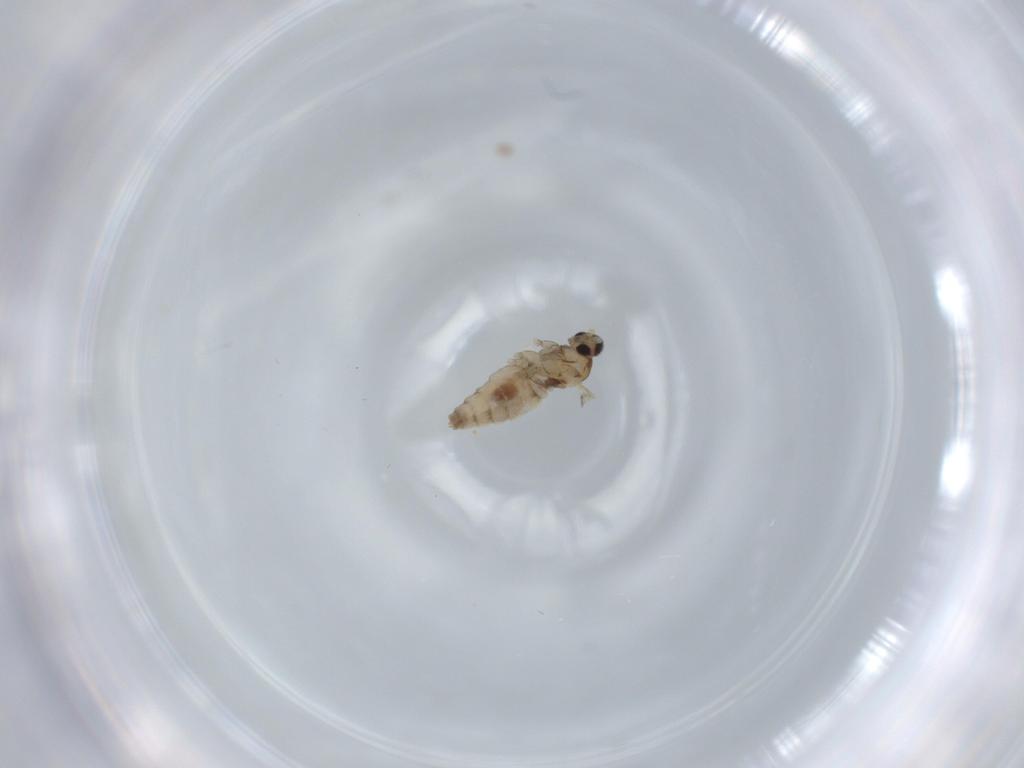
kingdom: Animalia
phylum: Arthropoda
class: Insecta
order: Diptera
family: Cecidomyiidae
